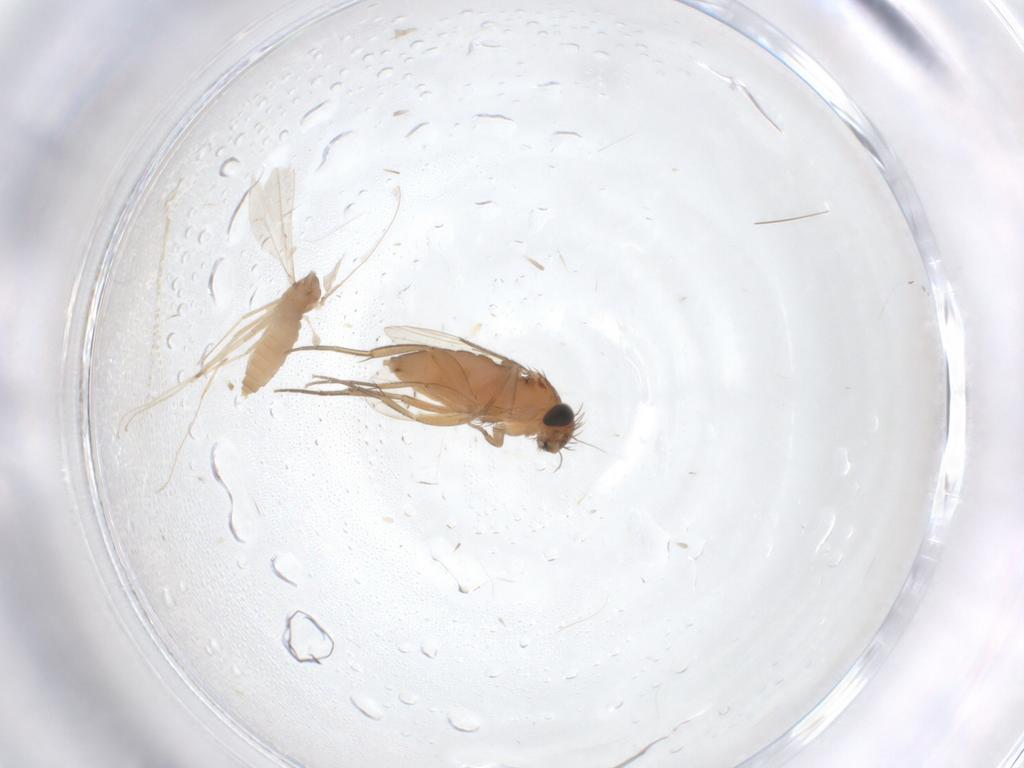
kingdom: Animalia
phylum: Arthropoda
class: Insecta
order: Diptera
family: Cecidomyiidae
